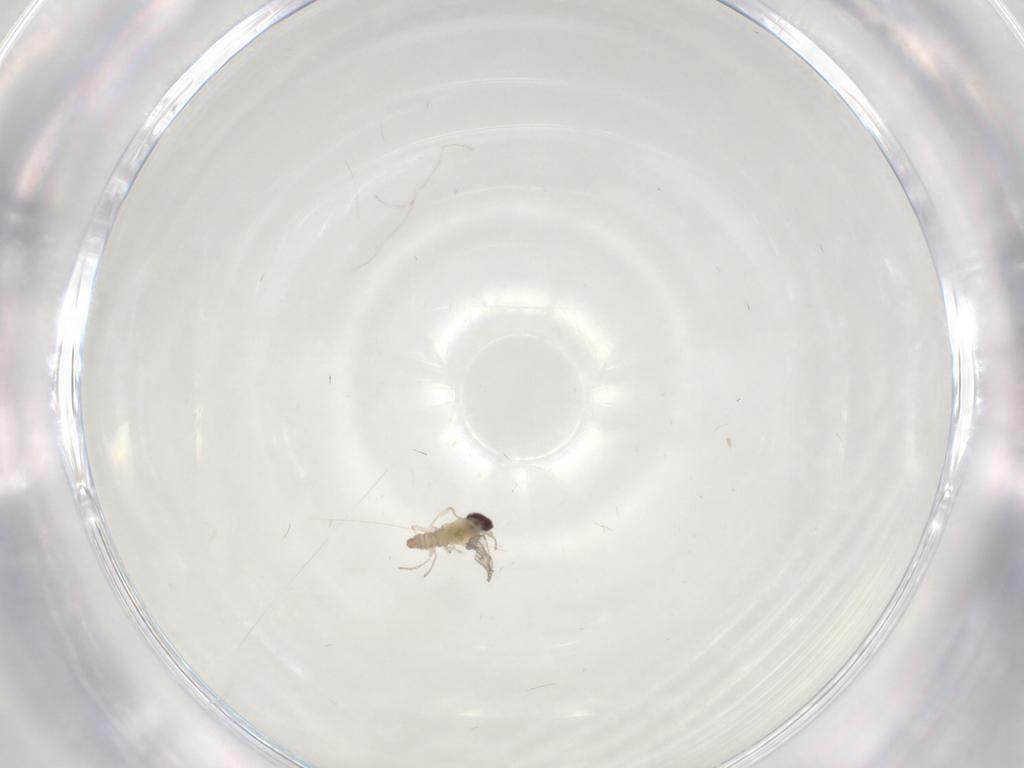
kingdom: Animalia
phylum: Arthropoda
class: Insecta
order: Diptera
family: Cecidomyiidae
